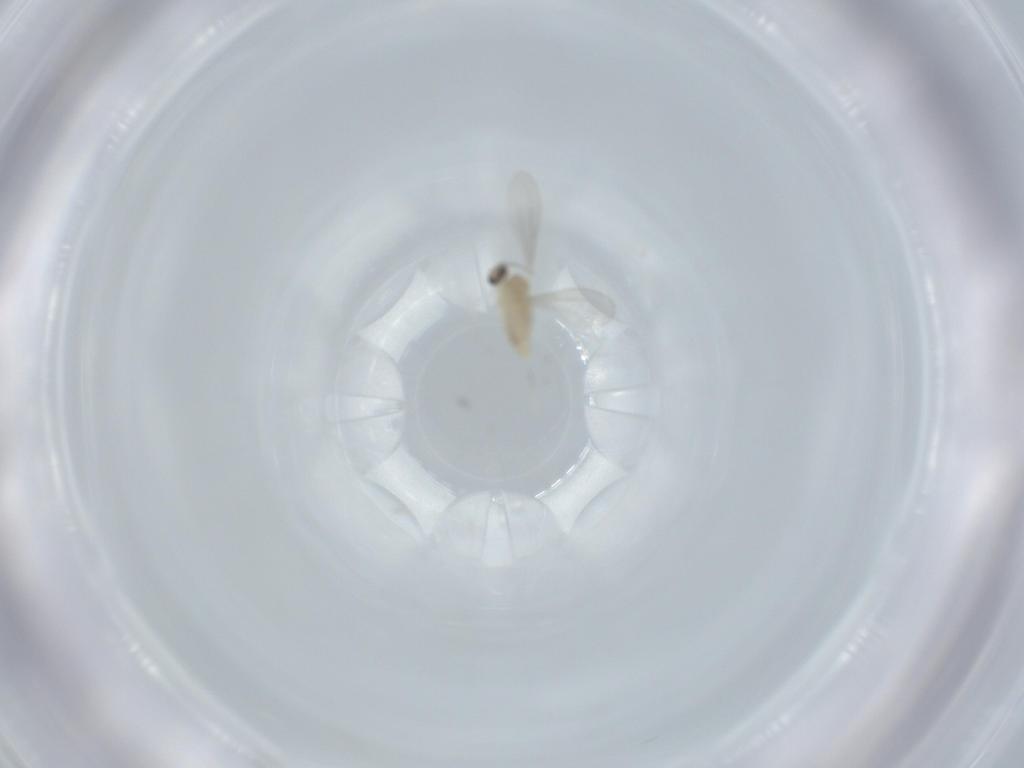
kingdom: Animalia
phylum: Arthropoda
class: Insecta
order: Diptera
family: Cecidomyiidae
